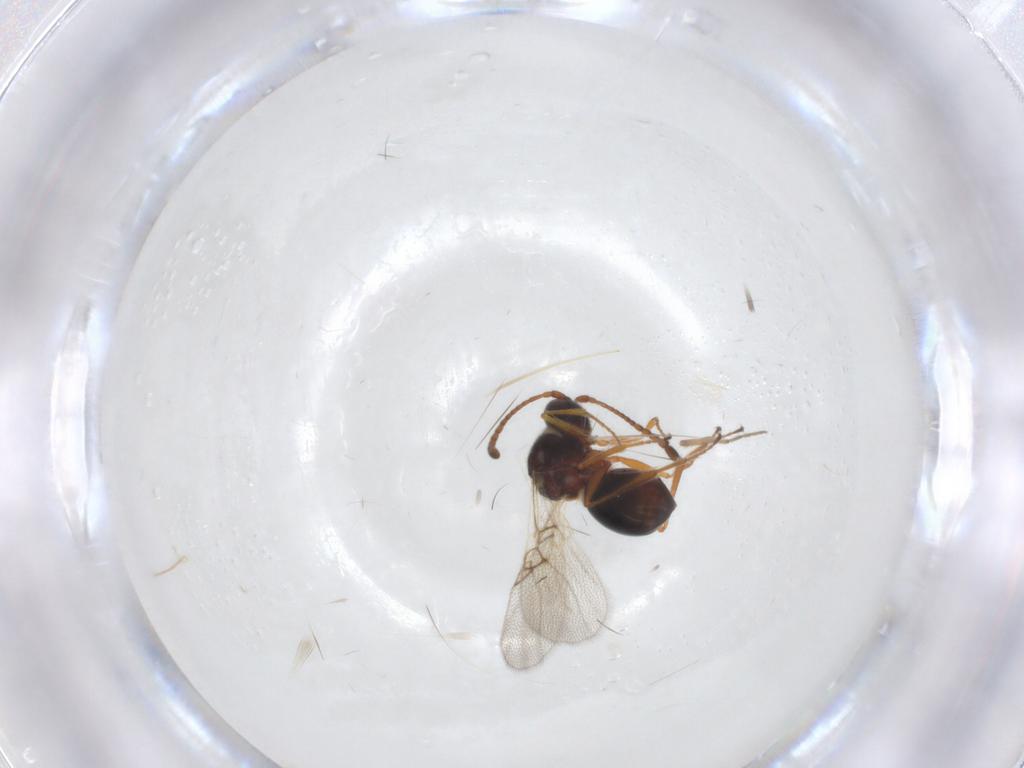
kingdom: Animalia
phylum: Arthropoda
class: Insecta
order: Hymenoptera
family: Figitidae
